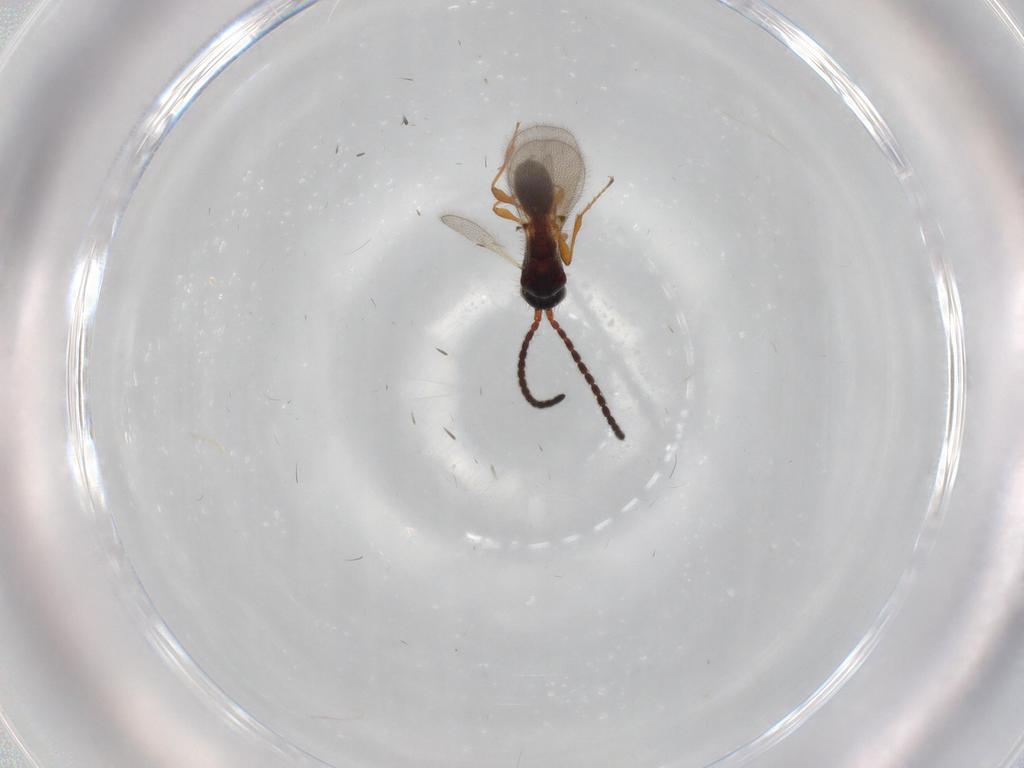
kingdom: Animalia
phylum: Arthropoda
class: Insecta
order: Hymenoptera
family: Diapriidae
